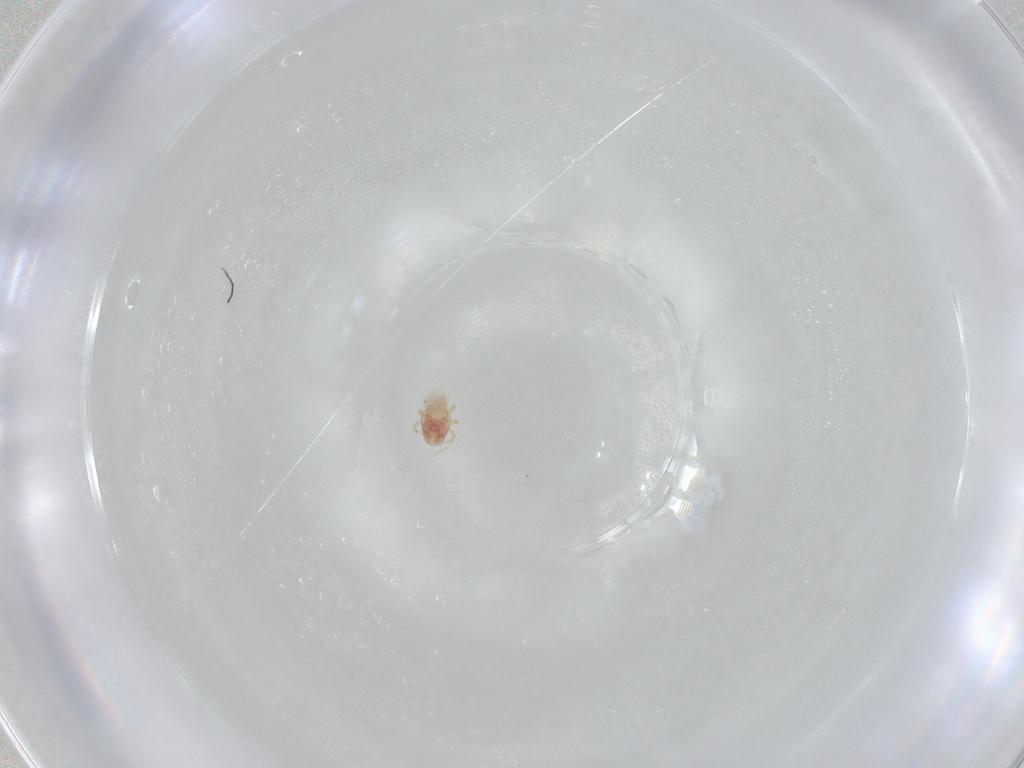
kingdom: Animalia
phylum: Arthropoda
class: Arachnida
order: Mesostigmata
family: Phytoseiidae
